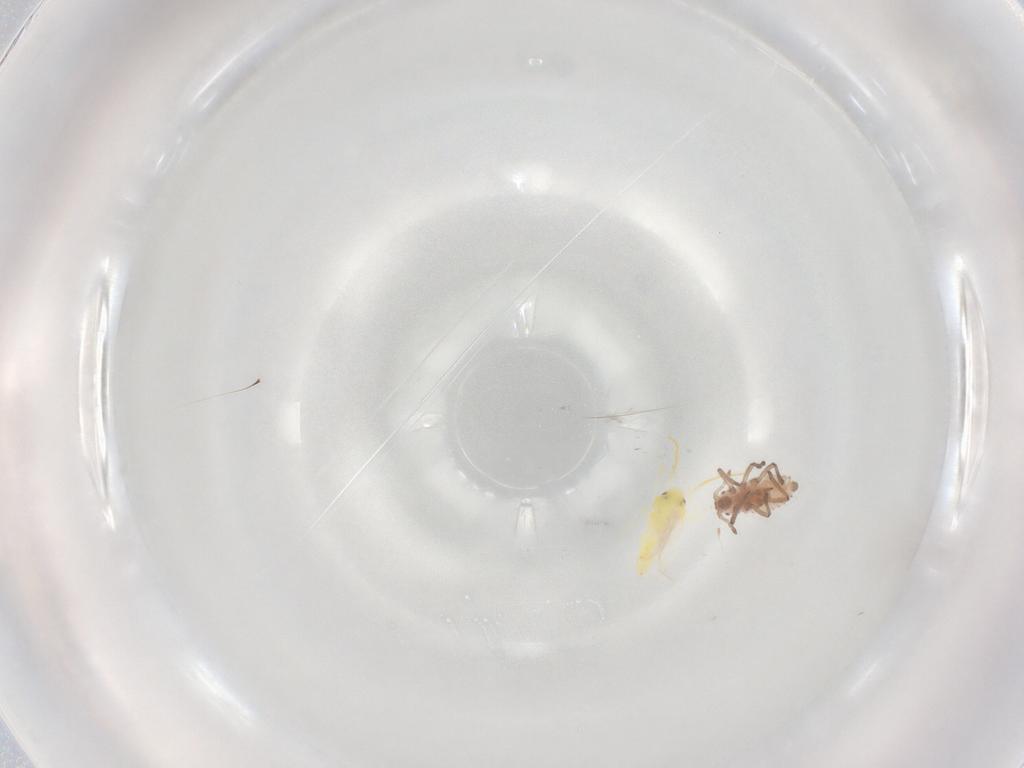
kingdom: Animalia
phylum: Arthropoda
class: Insecta
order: Hemiptera
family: Aphididae
